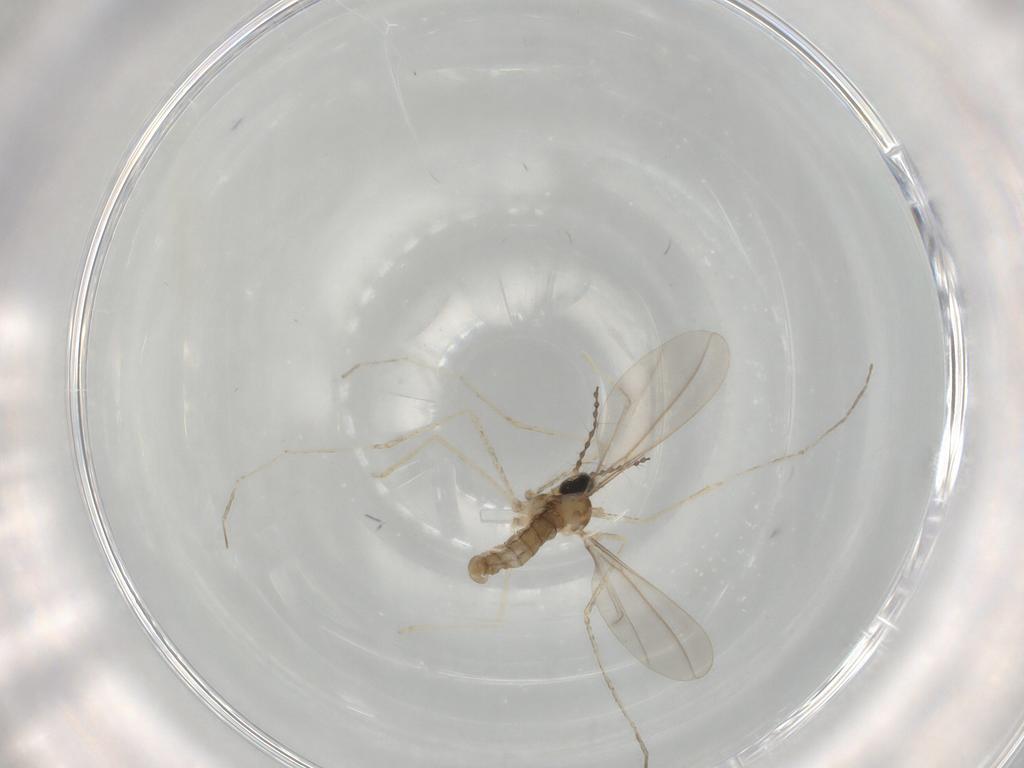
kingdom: Animalia
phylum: Arthropoda
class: Insecta
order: Diptera
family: Cecidomyiidae
